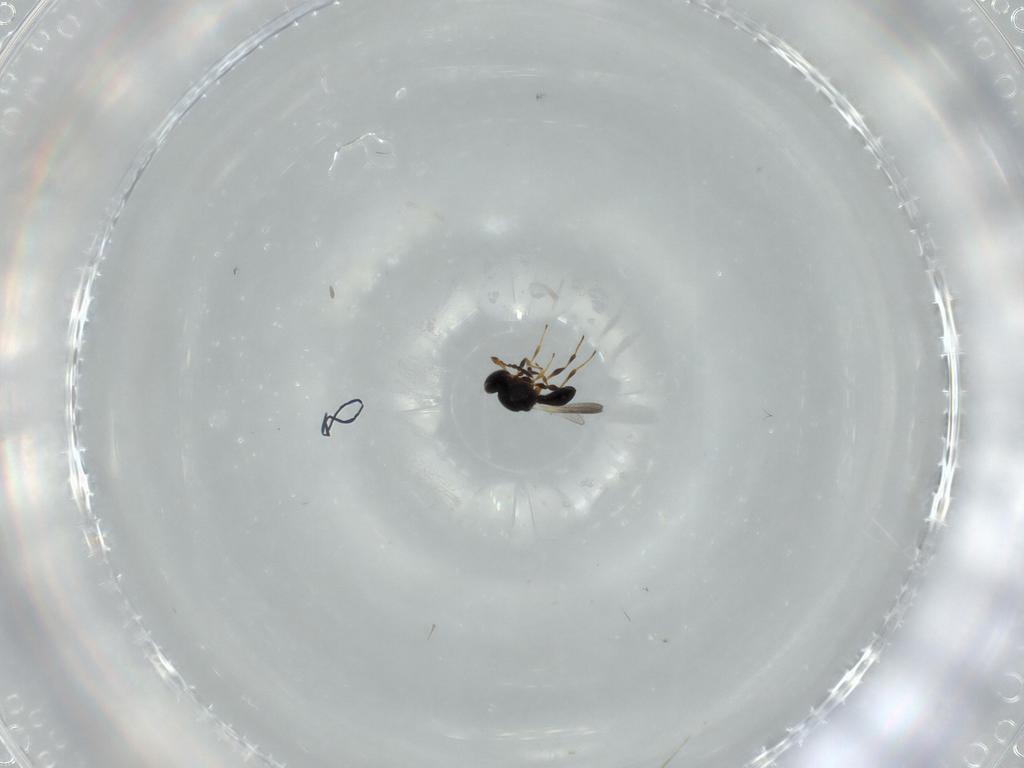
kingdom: Animalia
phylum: Arthropoda
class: Insecta
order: Hymenoptera
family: Platygastridae
